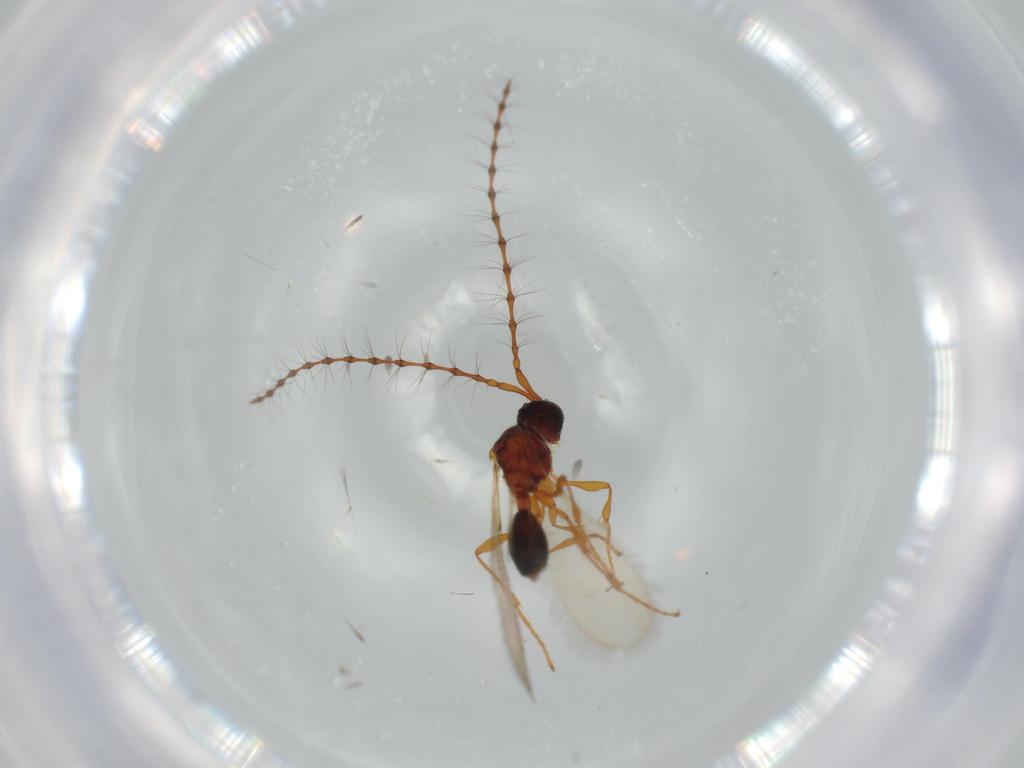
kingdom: Animalia
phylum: Arthropoda
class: Insecta
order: Hymenoptera
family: Diapriidae
